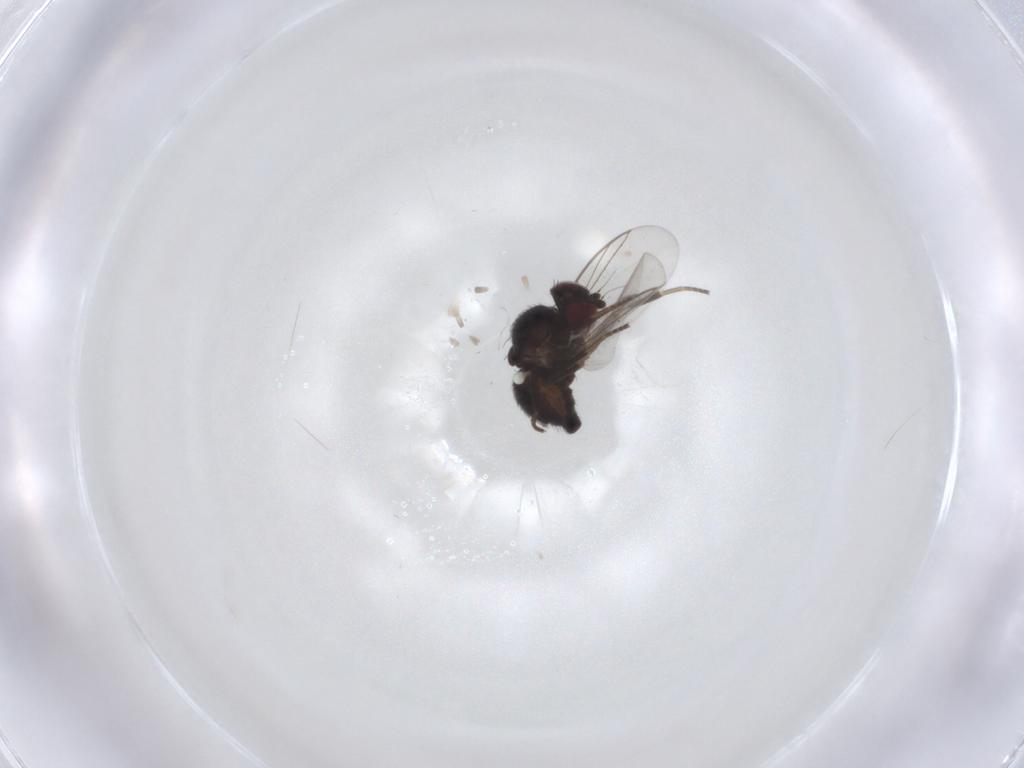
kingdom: Animalia
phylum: Arthropoda
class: Insecta
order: Diptera
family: Agromyzidae
